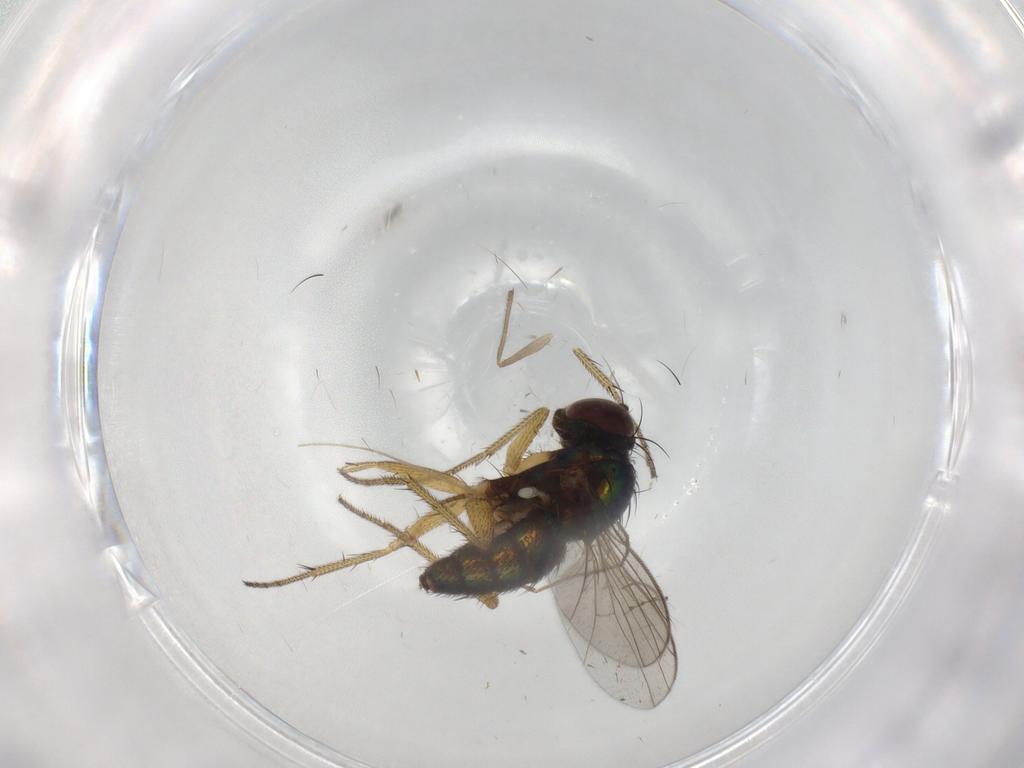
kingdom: Animalia
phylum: Arthropoda
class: Insecta
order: Diptera
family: Chironomidae
